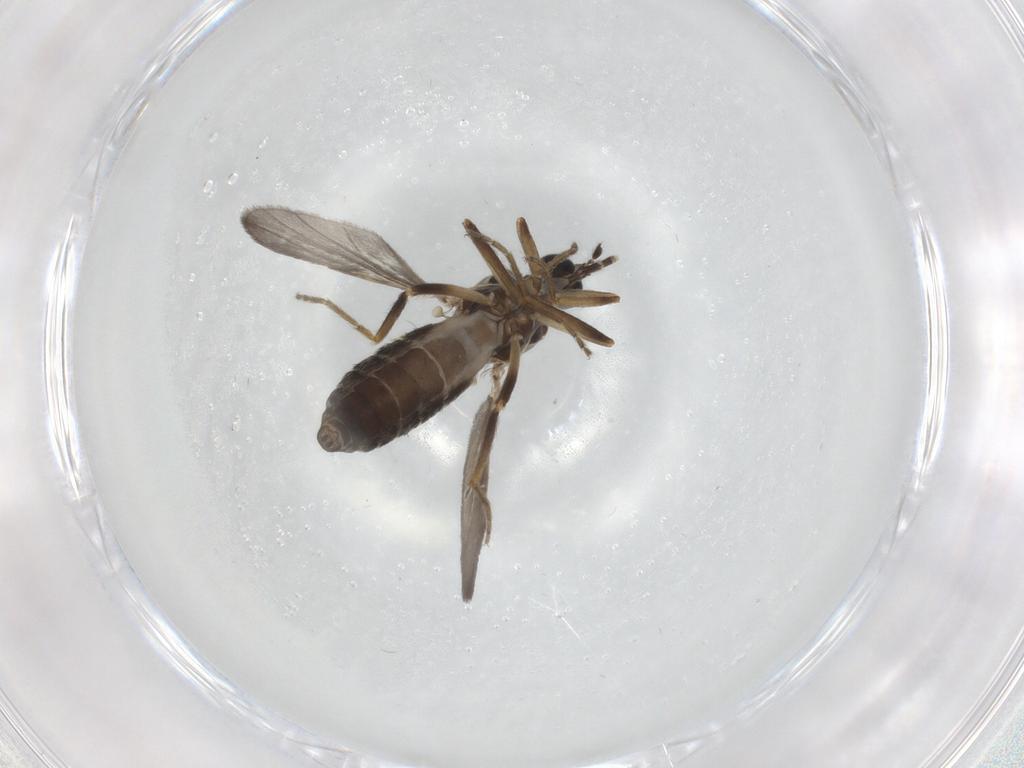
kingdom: Animalia
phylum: Arthropoda
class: Insecta
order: Diptera
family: Ceratopogonidae
